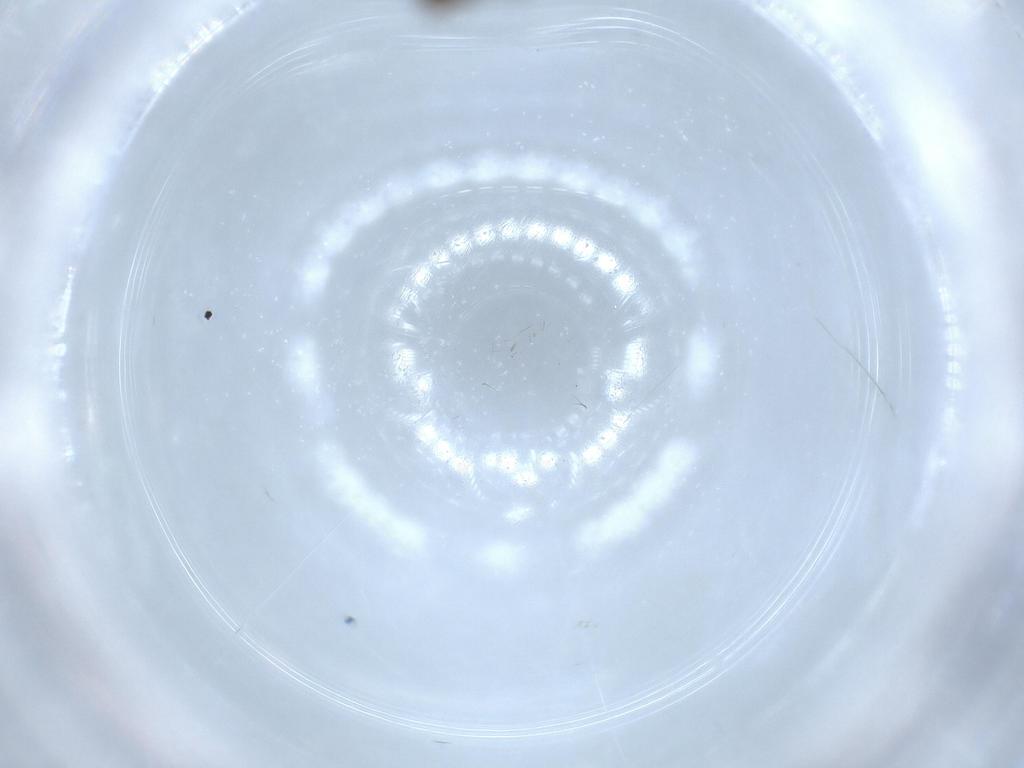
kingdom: Animalia
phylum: Arthropoda
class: Insecta
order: Diptera
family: Sciaridae
